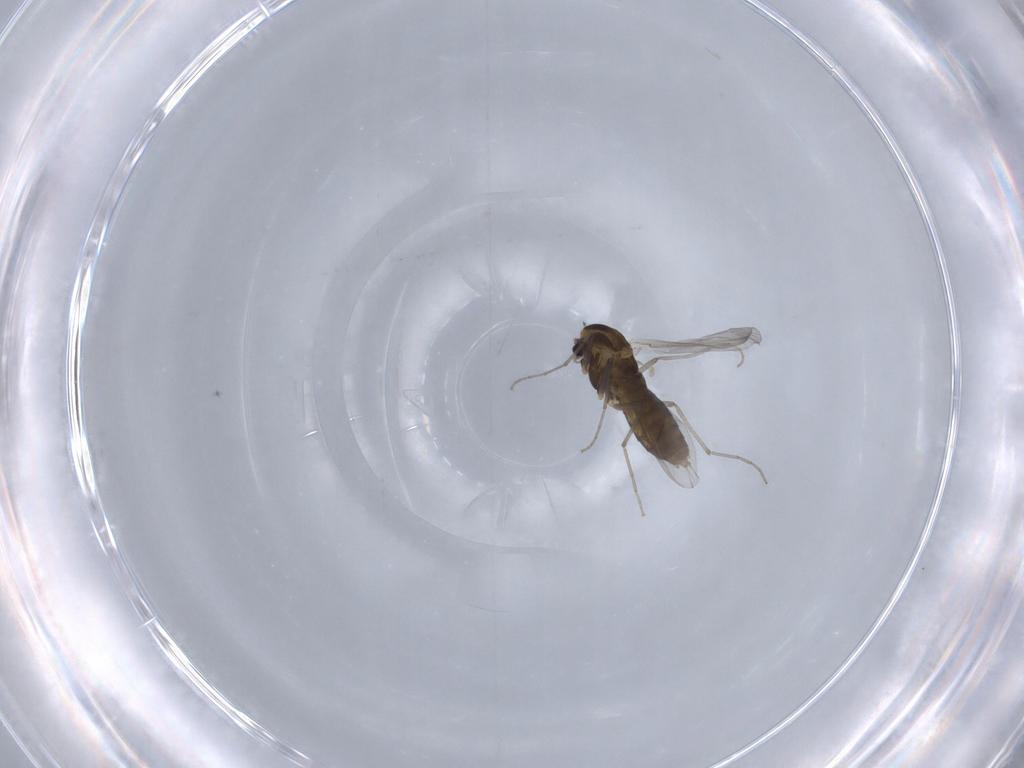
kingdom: Animalia
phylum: Arthropoda
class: Insecta
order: Diptera
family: Chironomidae
